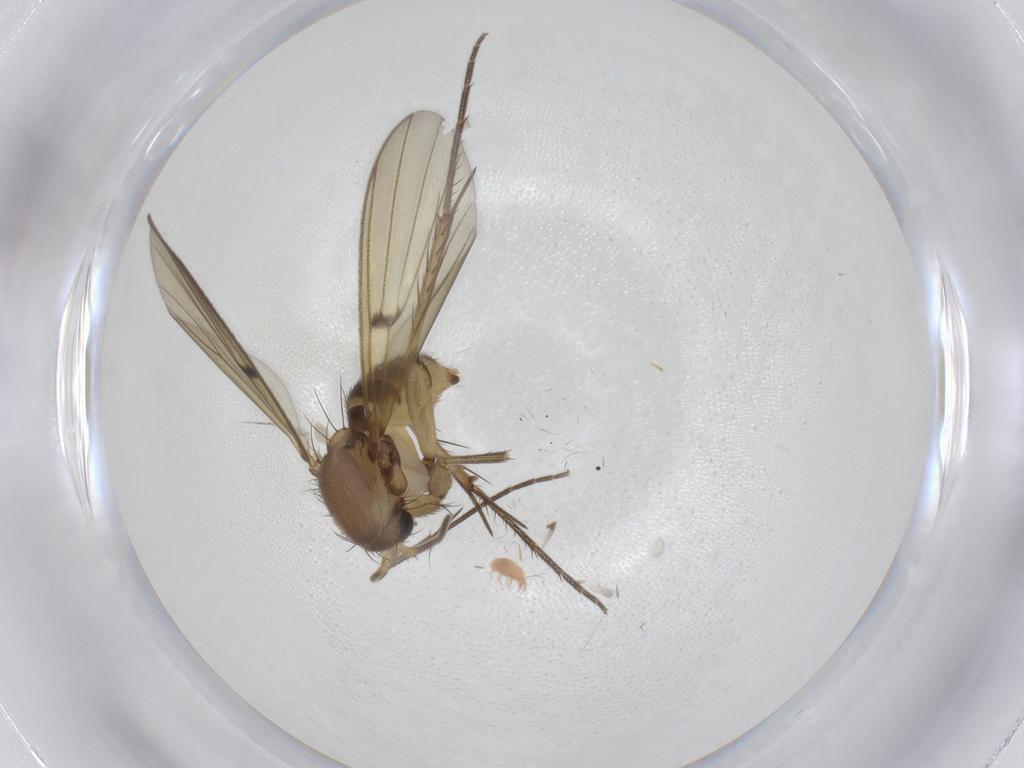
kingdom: Animalia
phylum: Arthropoda
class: Insecta
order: Diptera
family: Mycetophilidae
